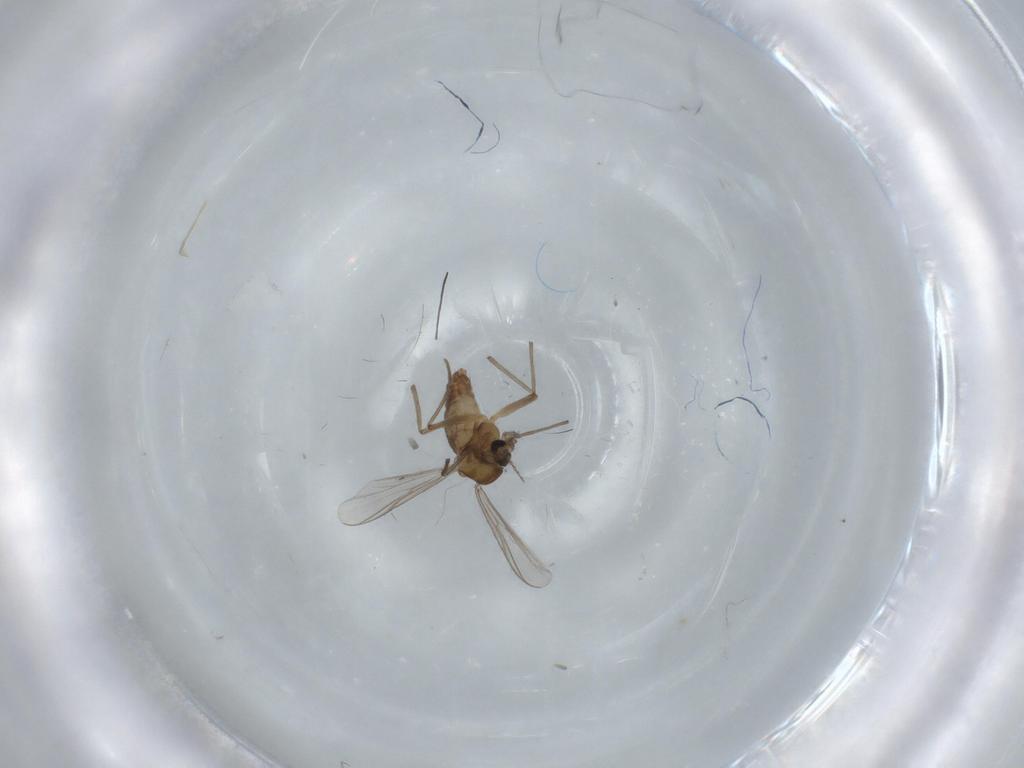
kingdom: Animalia
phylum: Arthropoda
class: Insecta
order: Diptera
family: Chironomidae
